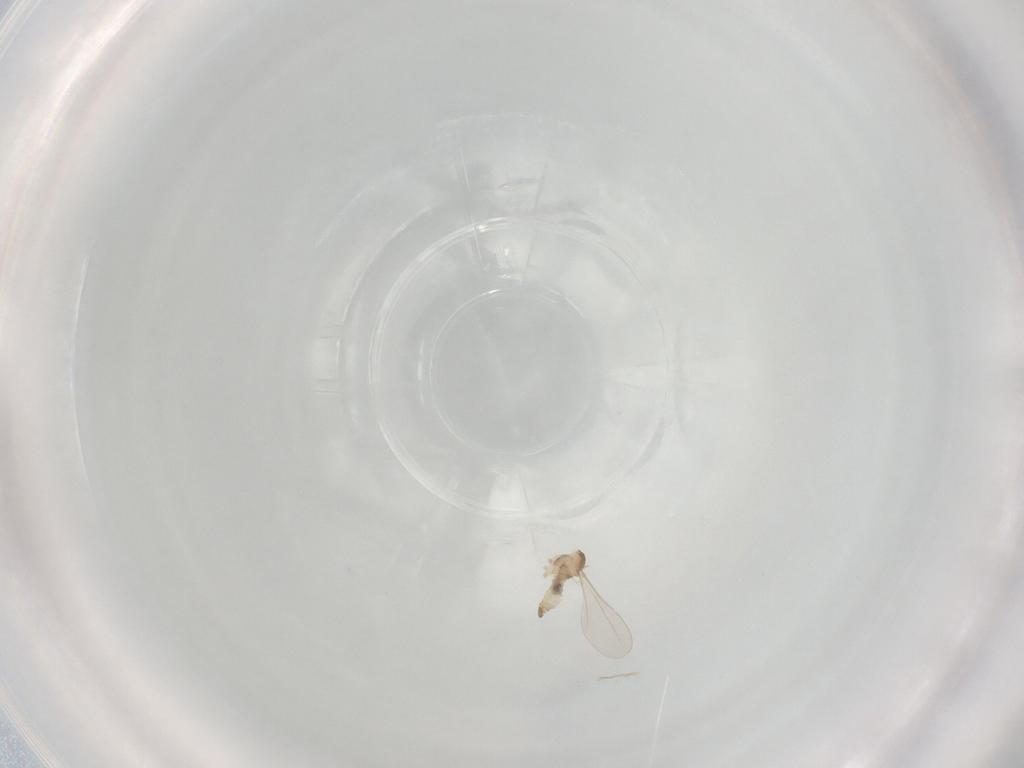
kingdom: Animalia
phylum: Arthropoda
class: Insecta
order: Diptera
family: Cecidomyiidae
